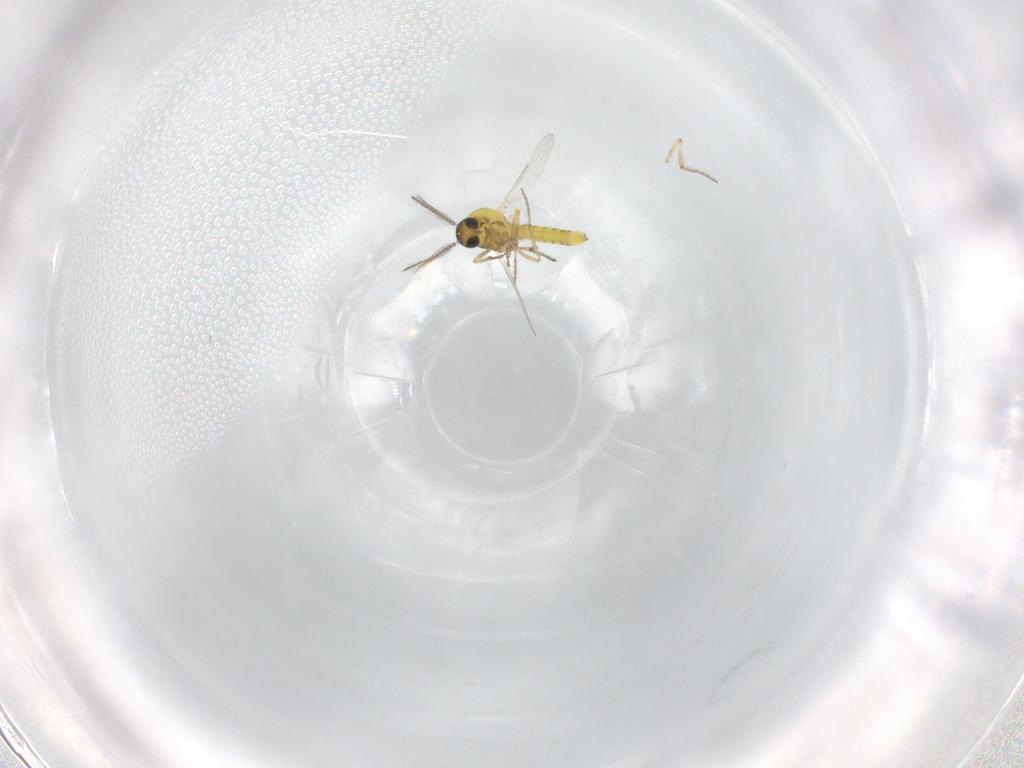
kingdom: Animalia
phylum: Arthropoda
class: Insecta
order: Diptera
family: Ceratopogonidae
